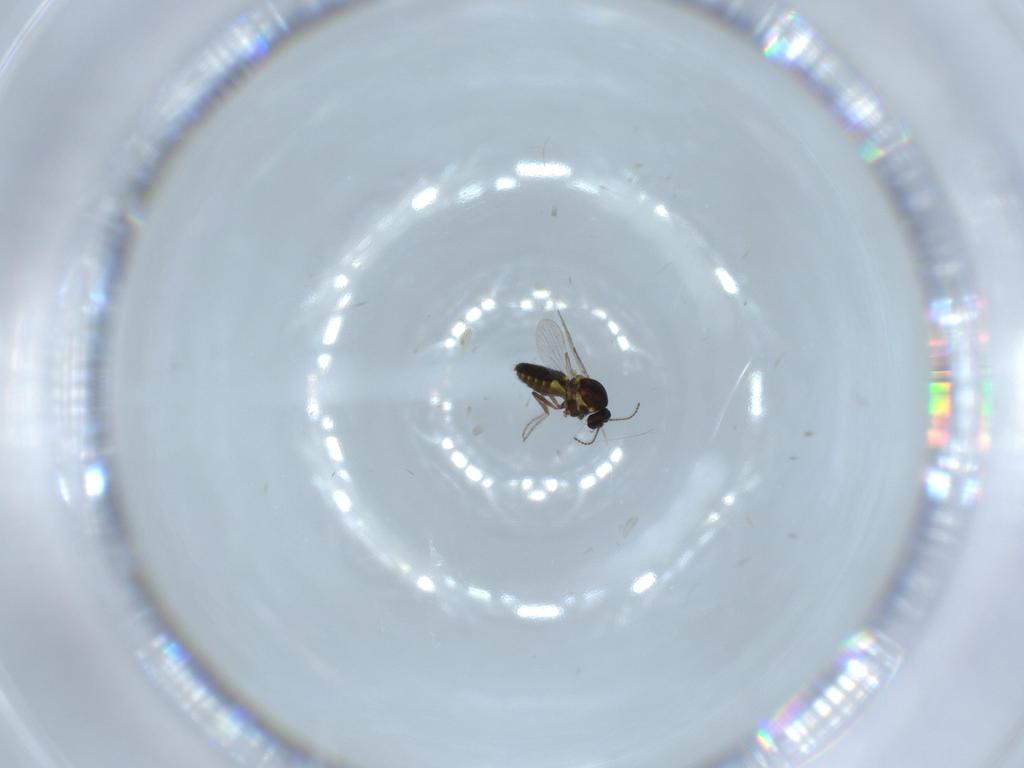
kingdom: Animalia
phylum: Arthropoda
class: Insecta
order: Diptera
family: Ceratopogonidae
